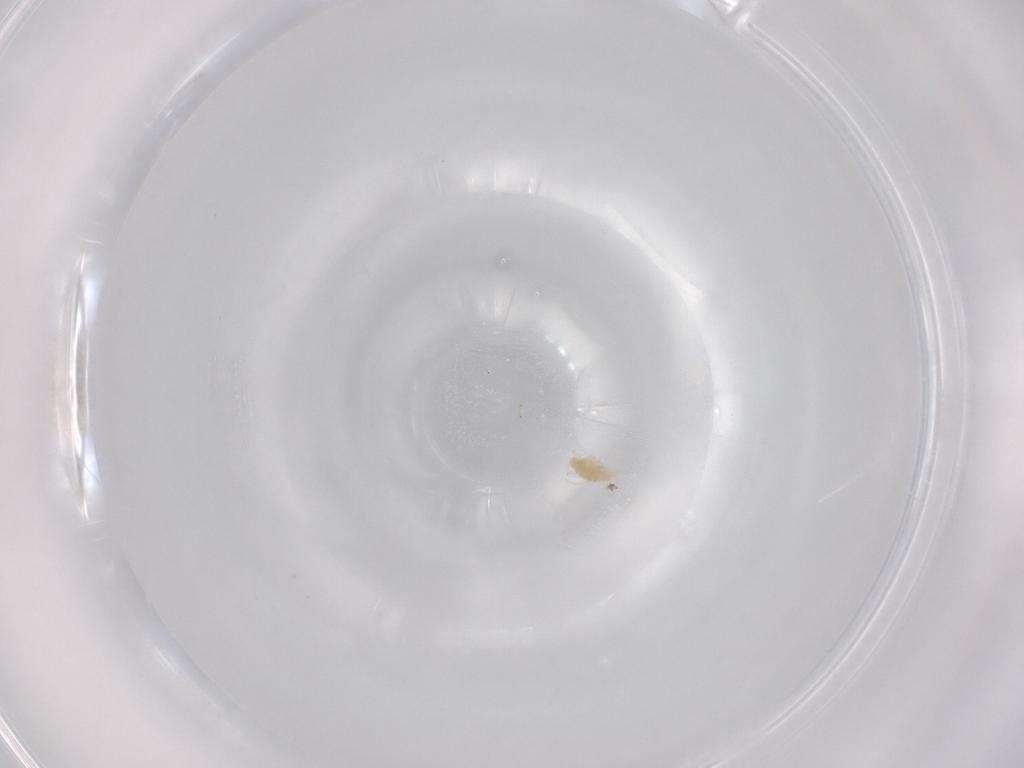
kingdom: Animalia
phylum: Arthropoda
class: Arachnida
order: Trombidiformes
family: Eupodidae
